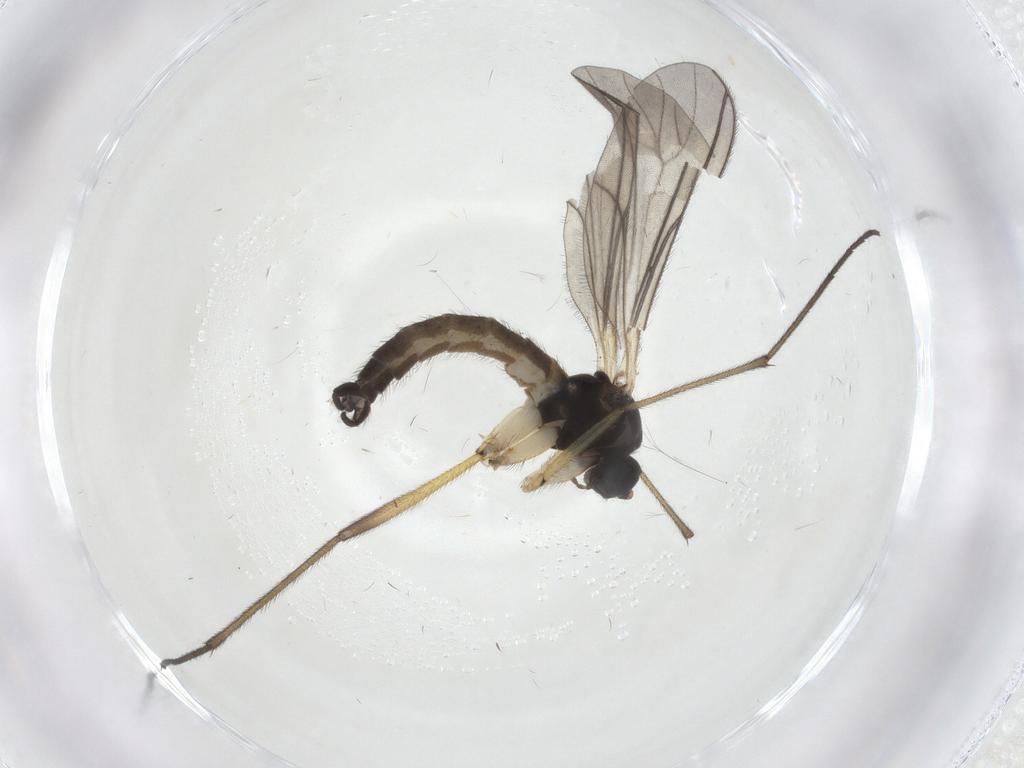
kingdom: Animalia
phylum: Arthropoda
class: Insecta
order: Diptera
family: Sciaridae
